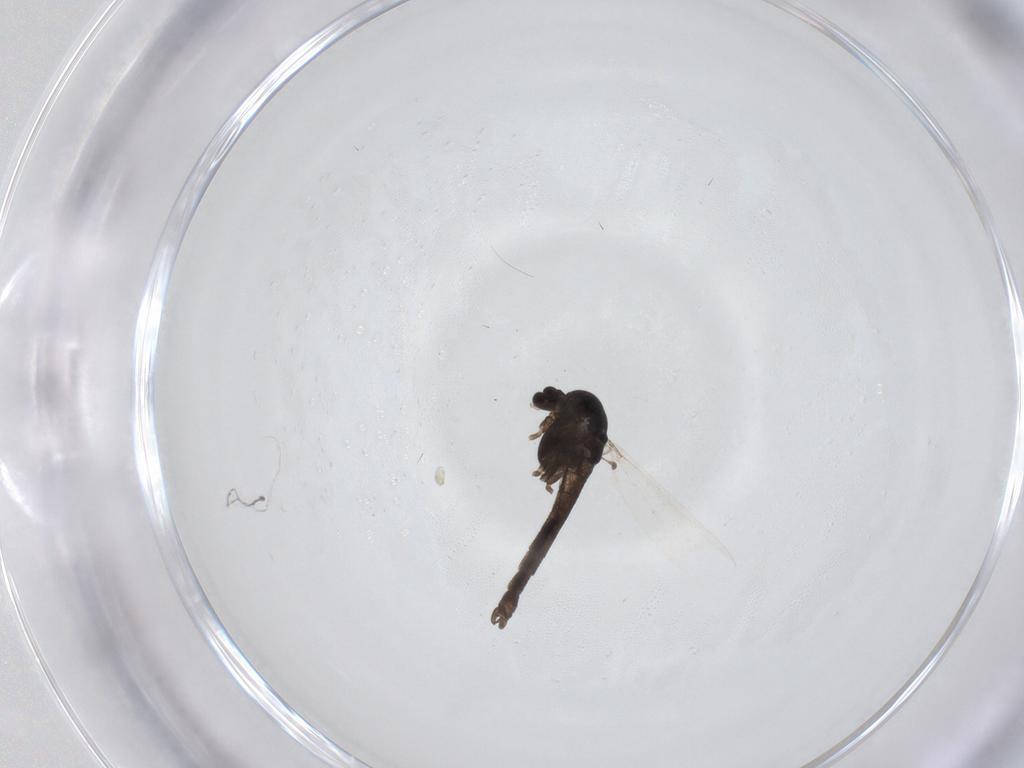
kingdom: Animalia
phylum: Arthropoda
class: Insecta
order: Diptera
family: Chironomidae
